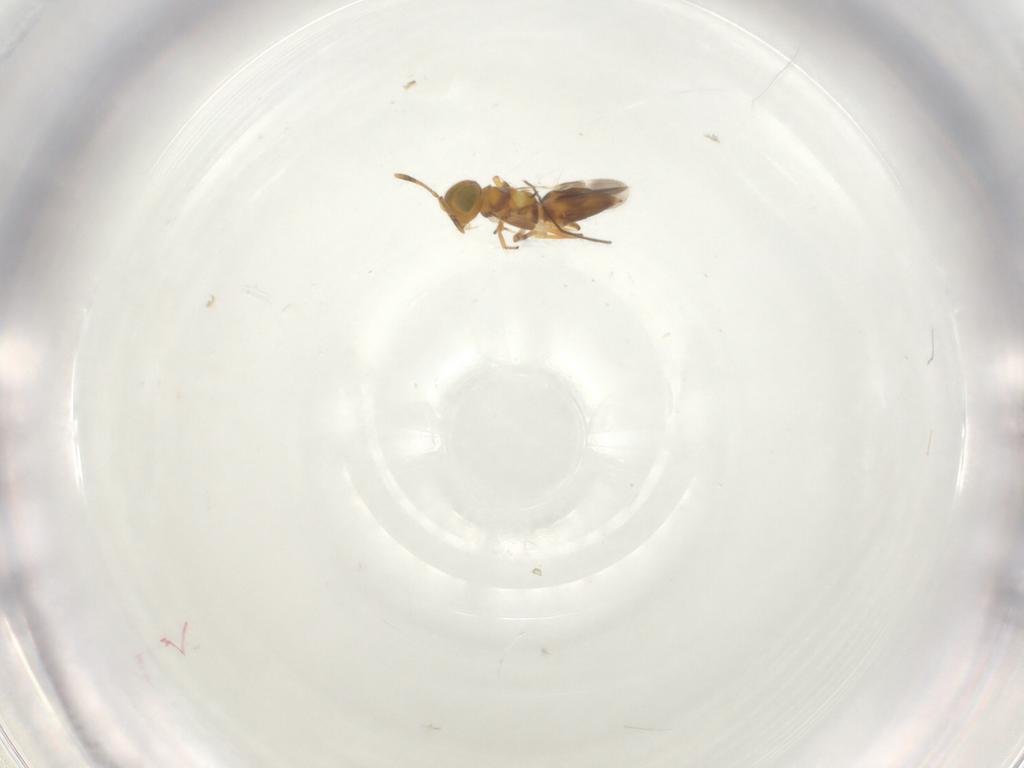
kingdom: Animalia
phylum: Arthropoda
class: Insecta
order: Hymenoptera
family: Encyrtidae
